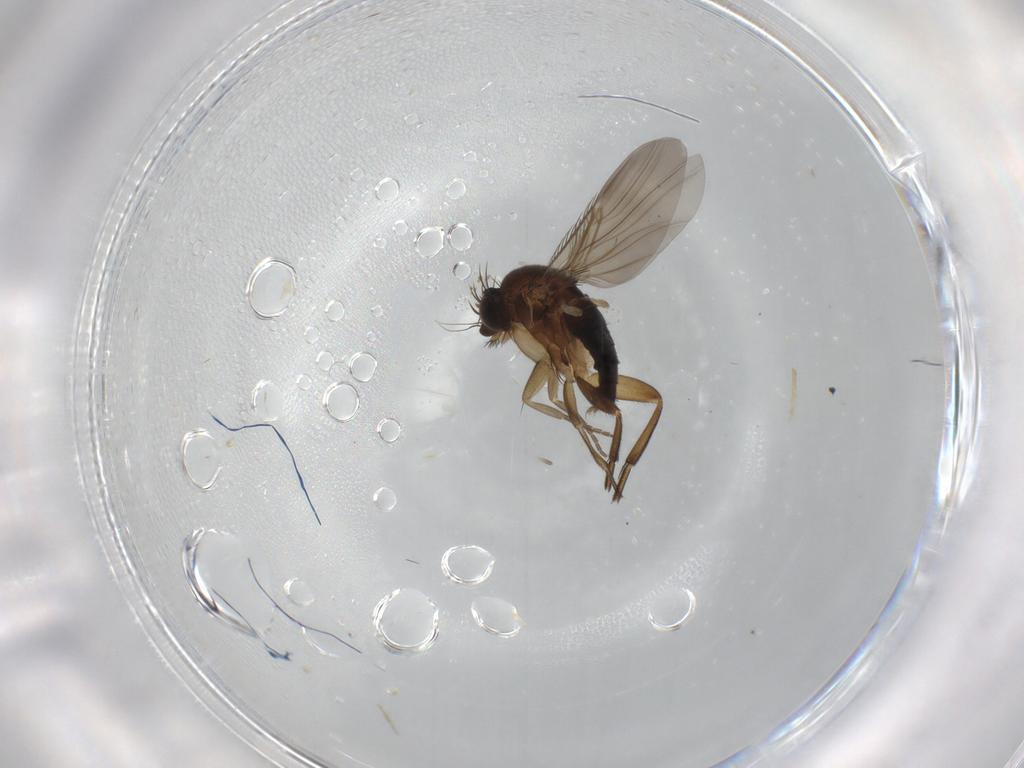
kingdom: Animalia
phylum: Arthropoda
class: Insecta
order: Diptera
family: Phoridae
